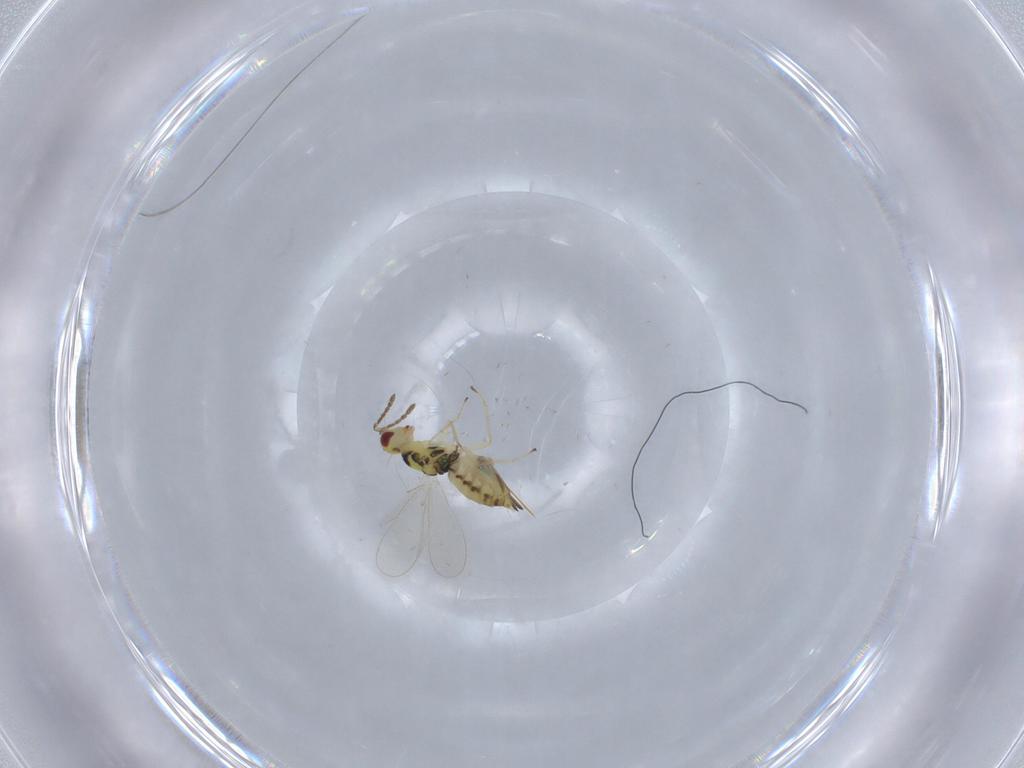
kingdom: Animalia
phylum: Arthropoda
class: Insecta
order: Hymenoptera
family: Eulophidae
